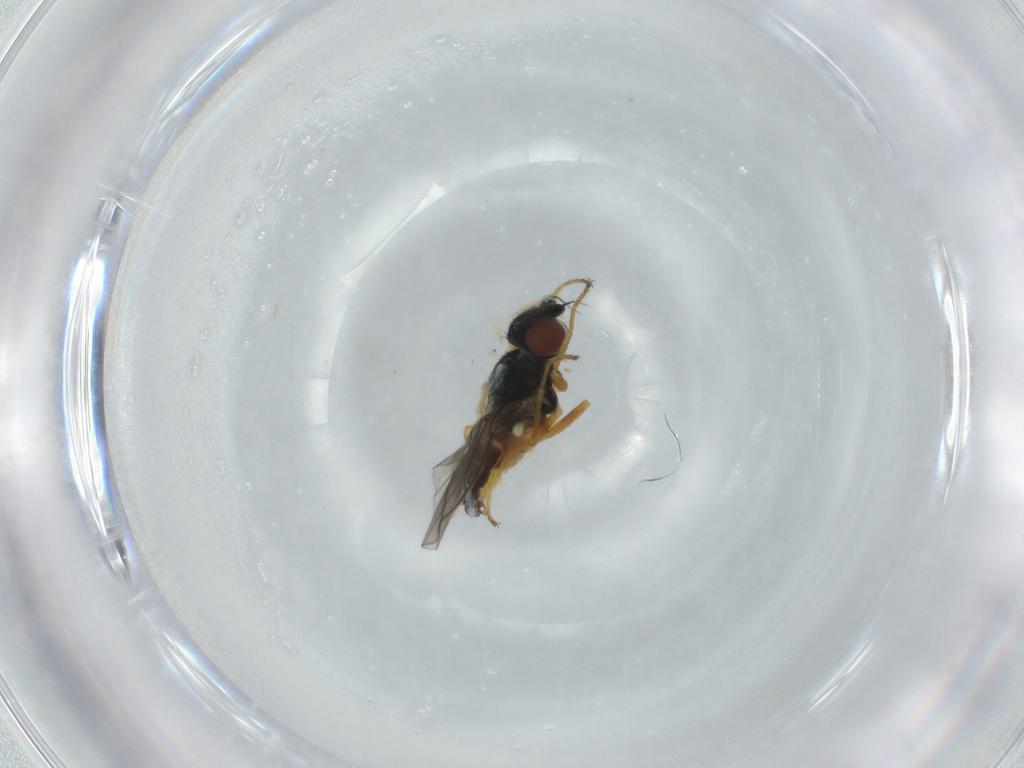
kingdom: Animalia
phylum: Arthropoda
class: Insecta
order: Diptera
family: Chloropidae
